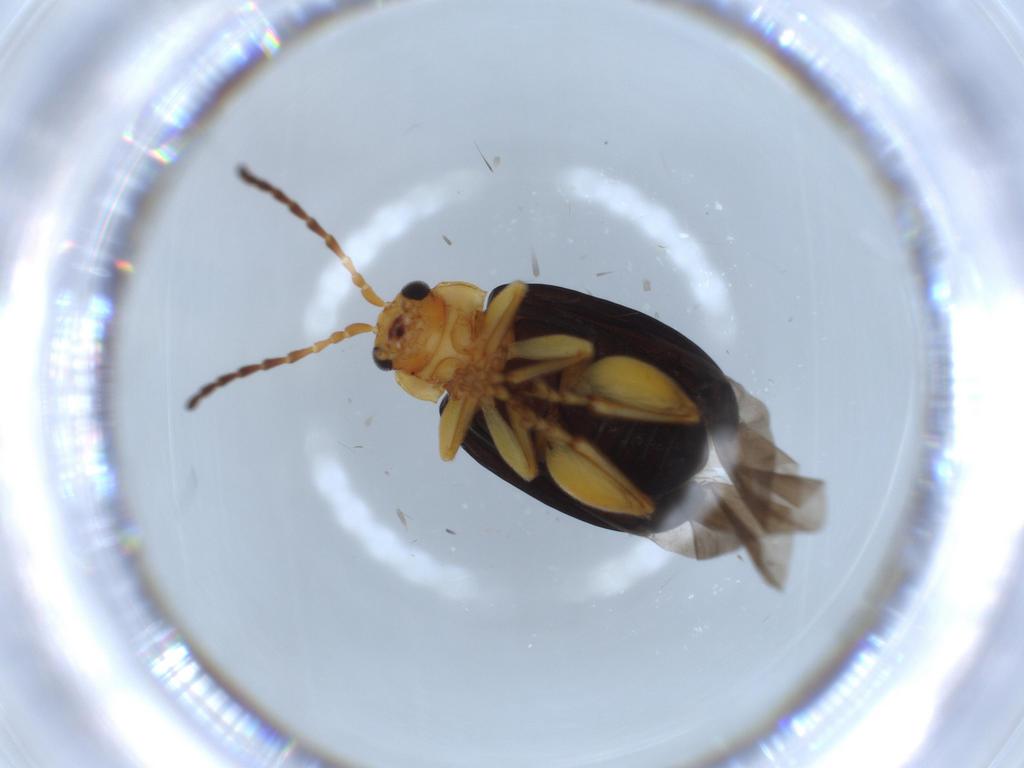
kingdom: Animalia
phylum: Arthropoda
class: Insecta
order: Coleoptera
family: Chrysomelidae
